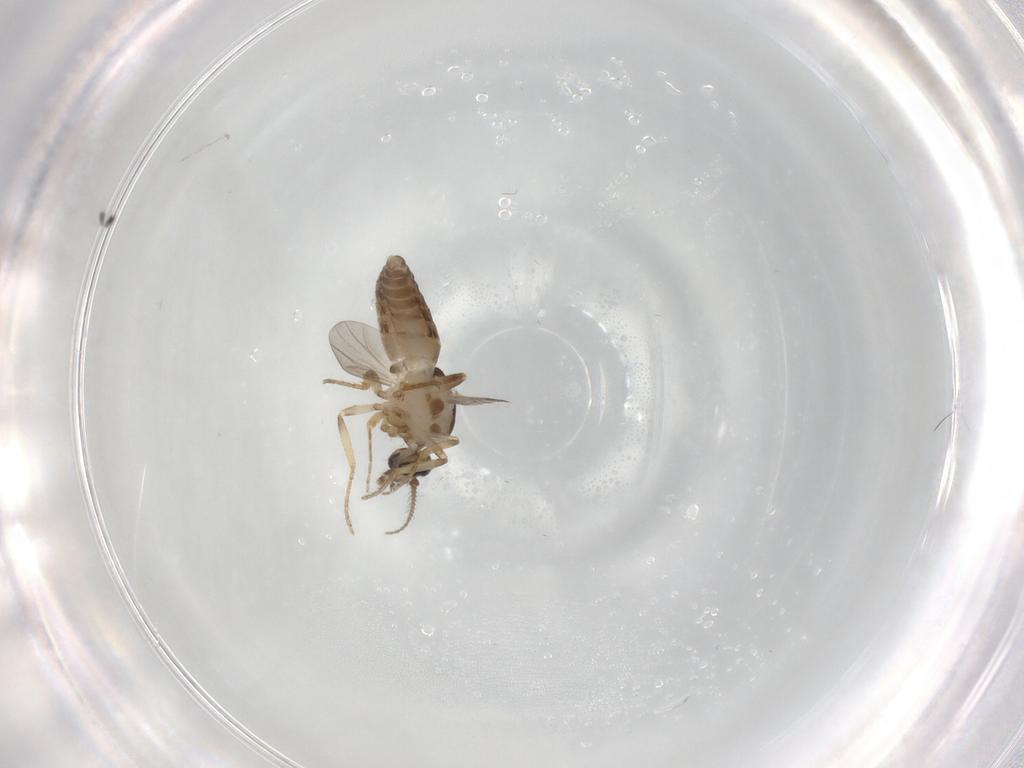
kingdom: Animalia
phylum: Arthropoda
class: Insecta
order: Diptera
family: Ceratopogonidae
